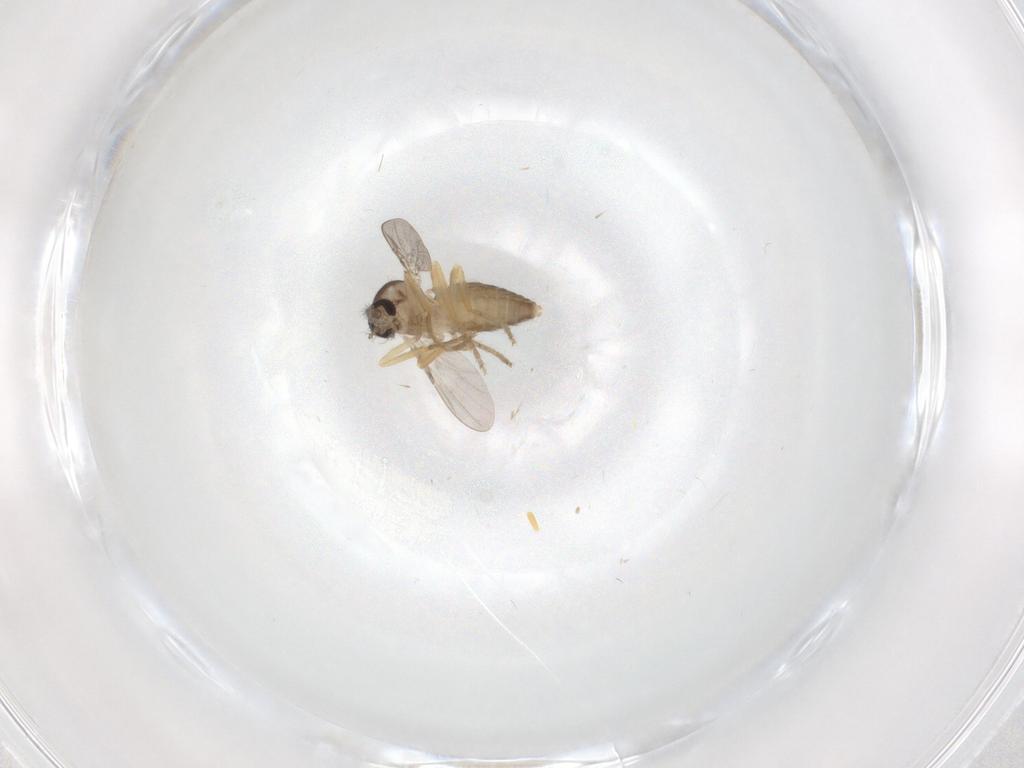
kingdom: Animalia
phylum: Arthropoda
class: Insecta
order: Diptera
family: Ceratopogonidae
